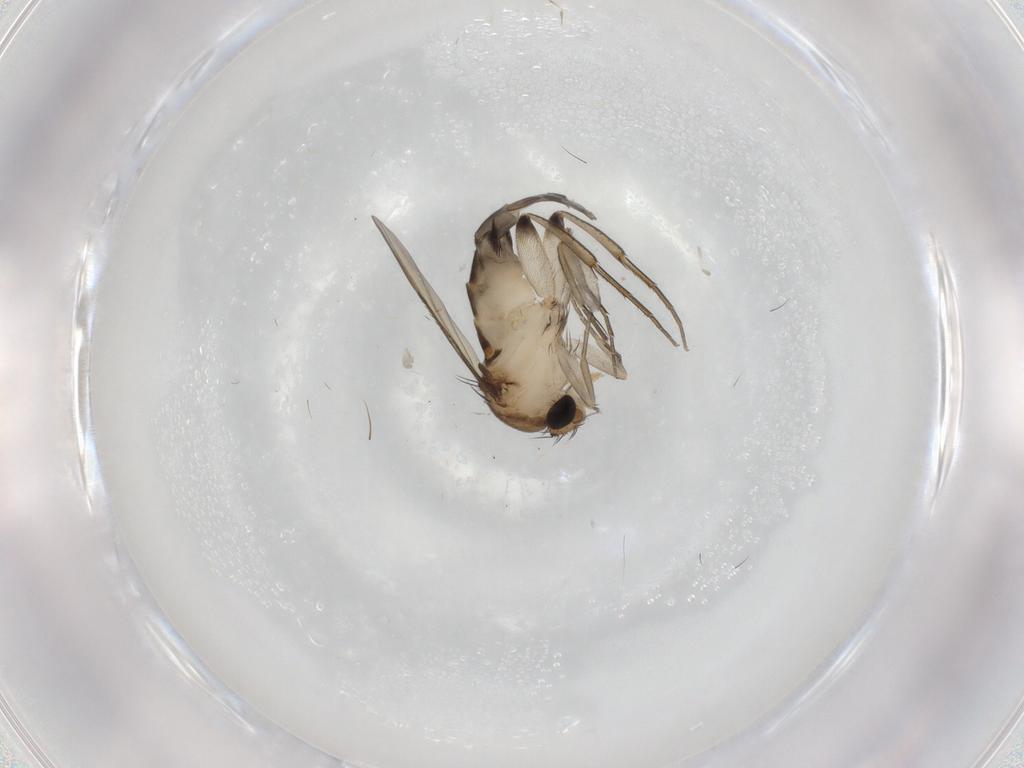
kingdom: Animalia
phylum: Arthropoda
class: Insecta
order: Diptera
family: Phoridae
